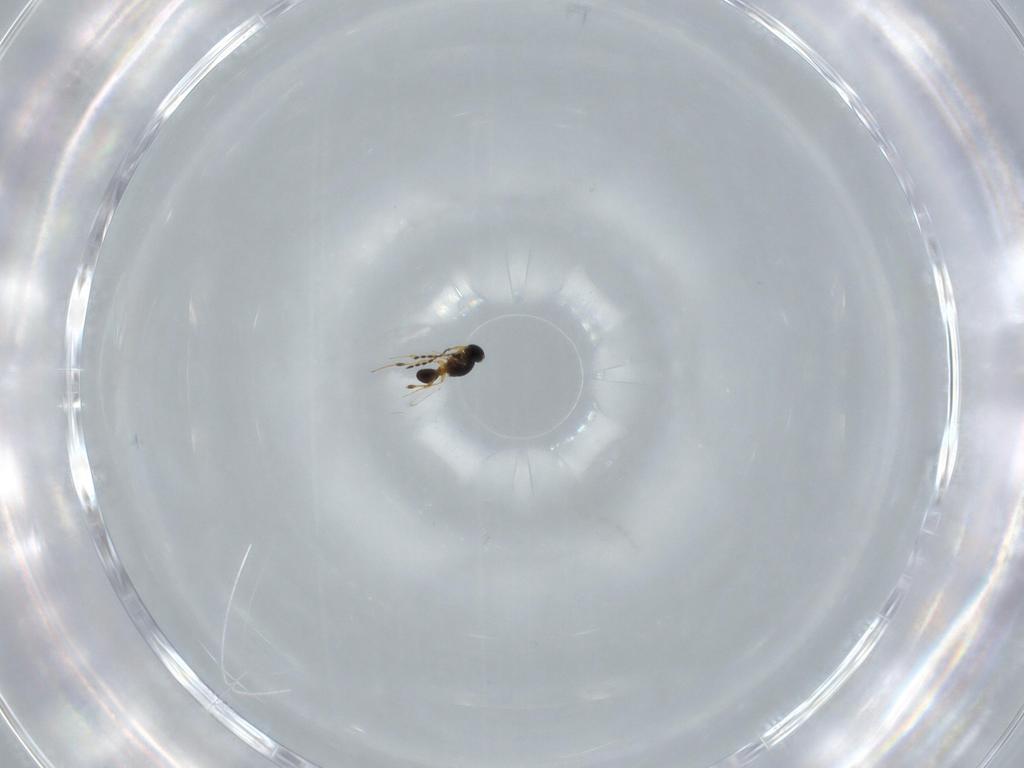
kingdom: Animalia
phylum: Arthropoda
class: Insecta
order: Hymenoptera
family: Platygastridae
